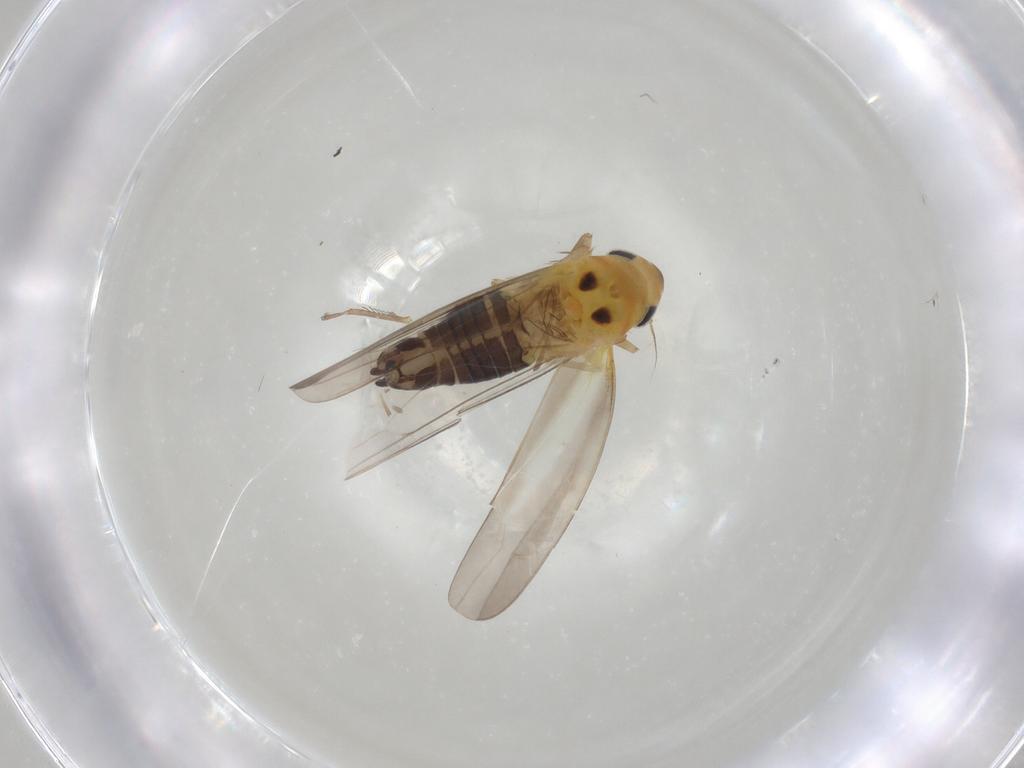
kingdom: Animalia
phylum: Arthropoda
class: Insecta
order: Hemiptera
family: Cicadellidae
